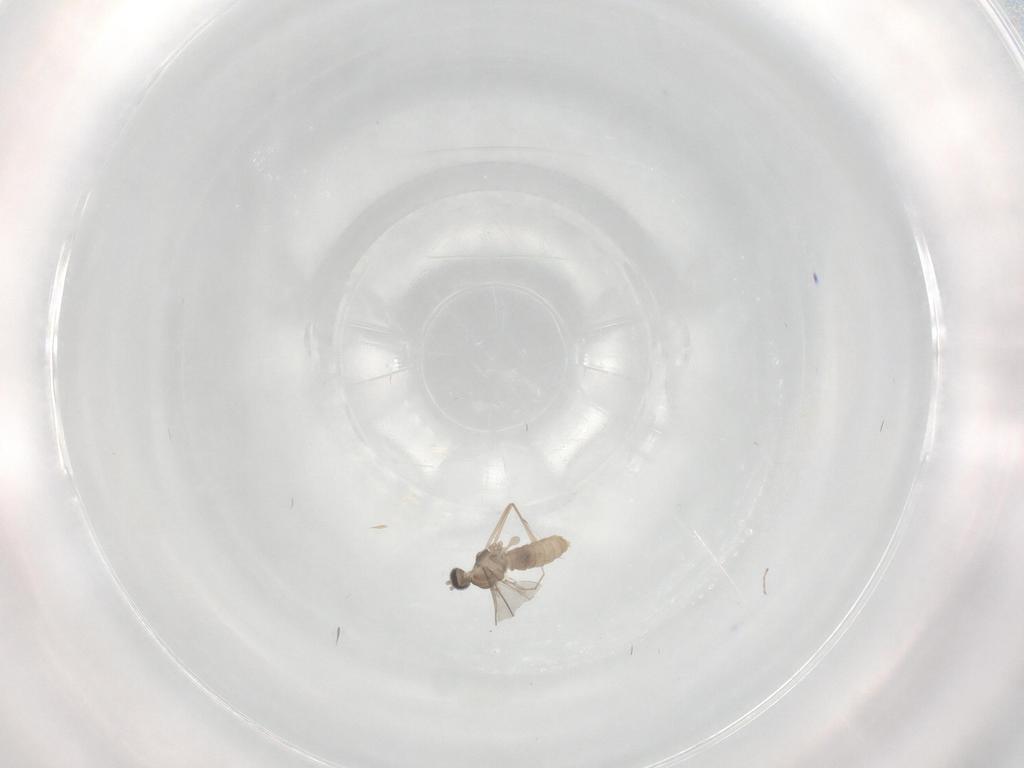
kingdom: Animalia
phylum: Arthropoda
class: Insecta
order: Diptera
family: Cecidomyiidae
